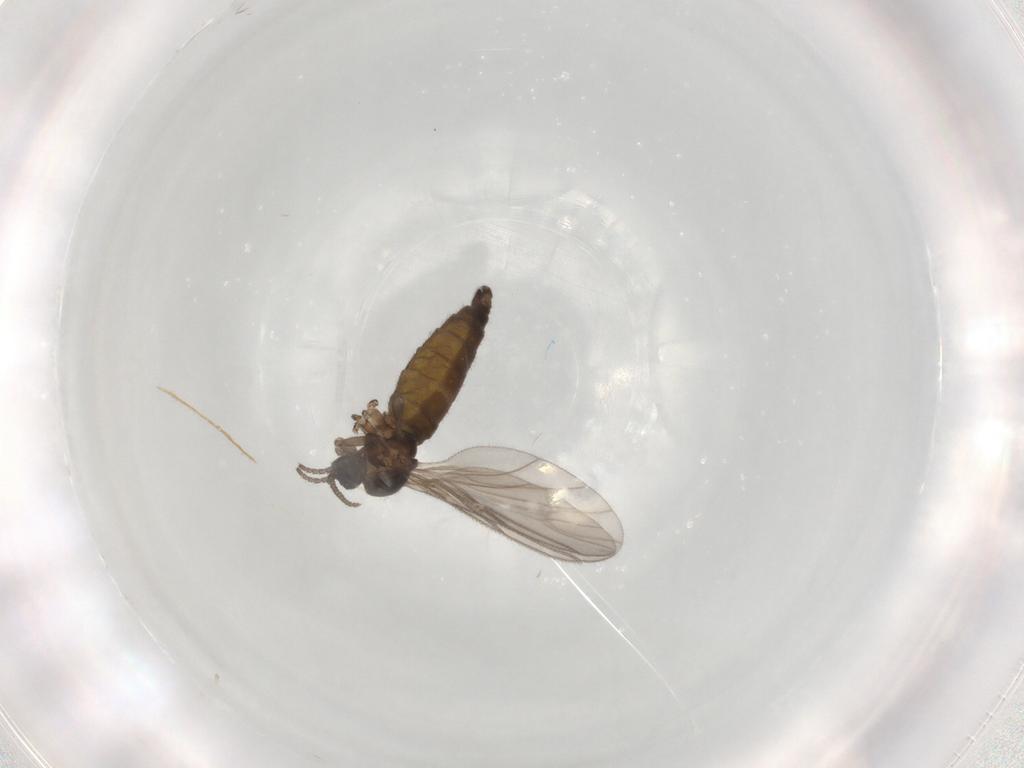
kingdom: Animalia
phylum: Arthropoda
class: Insecta
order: Diptera
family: Sciaridae
